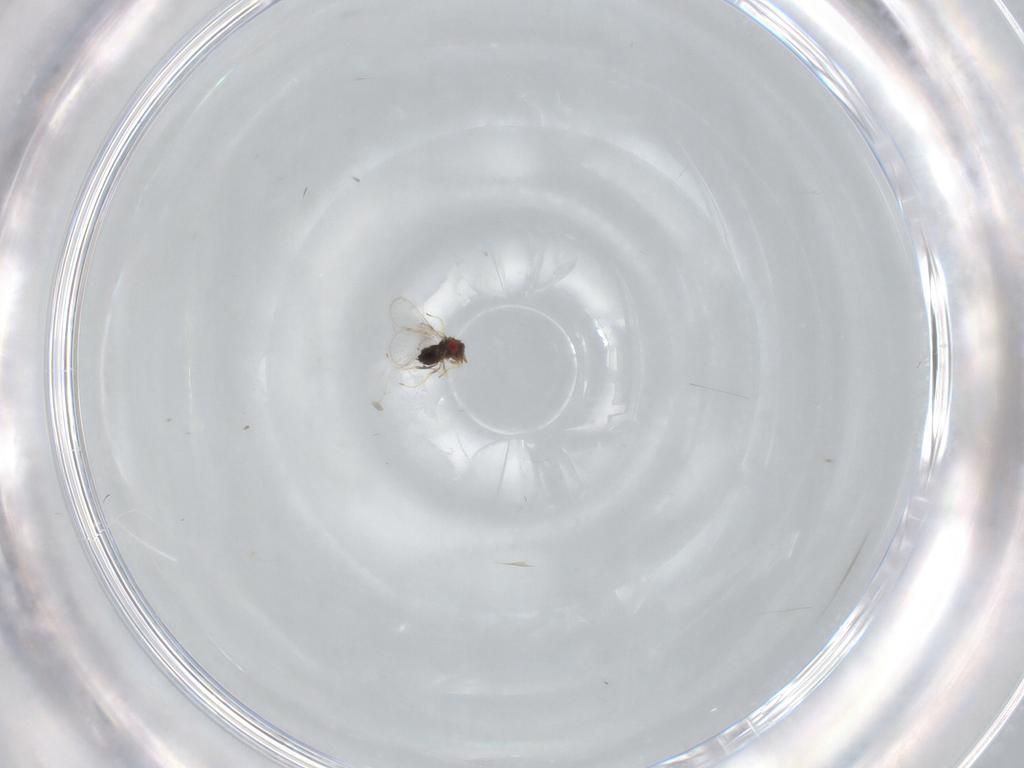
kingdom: Animalia
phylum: Arthropoda
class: Insecta
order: Hymenoptera
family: Trichogrammatidae
